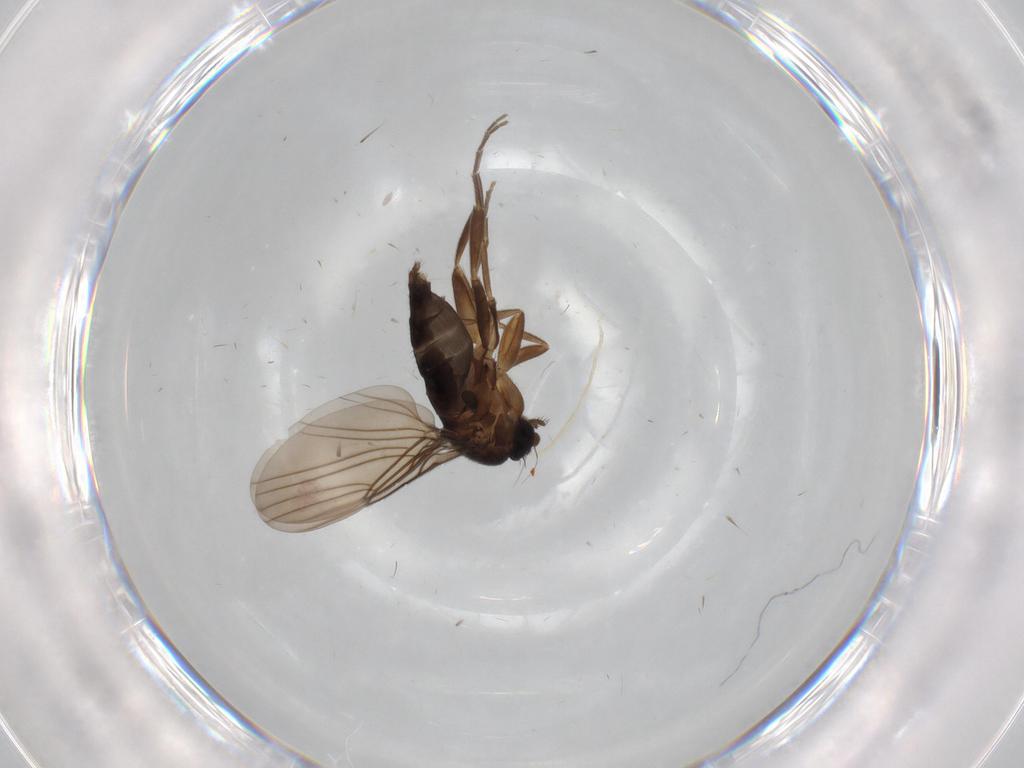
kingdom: Animalia
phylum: Arthropoda
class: Insecta
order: Diptera
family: Phoridae
